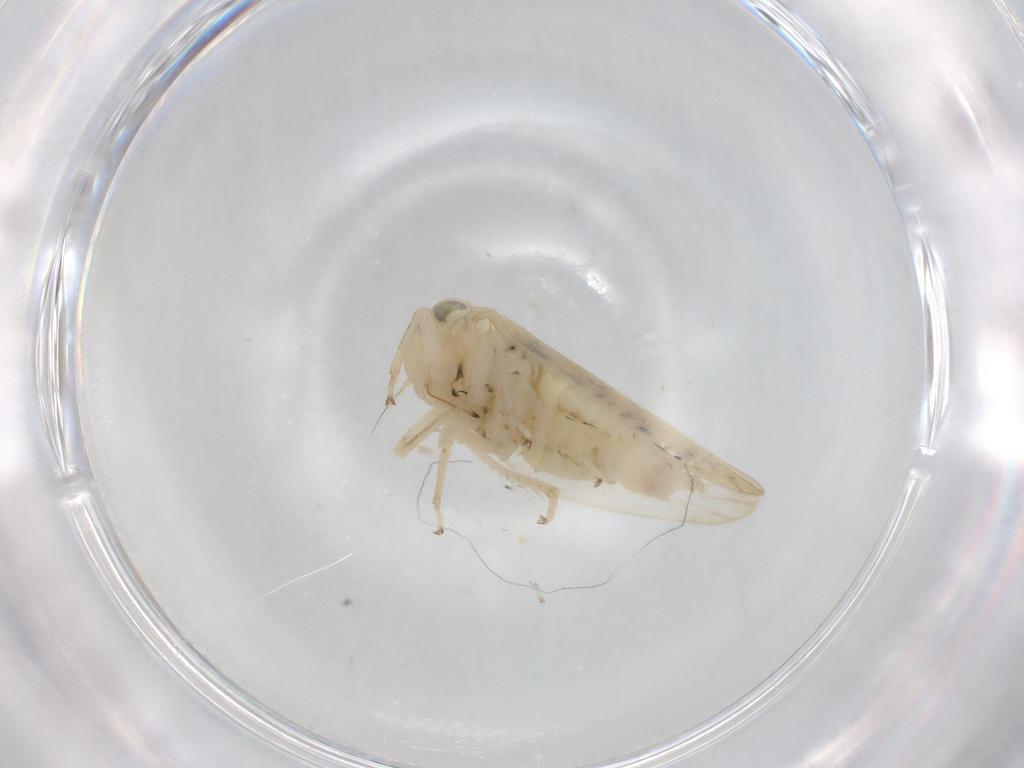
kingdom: Animalia
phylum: Arthropoda
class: Insecta
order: Hemiptera
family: Cicadellidae
